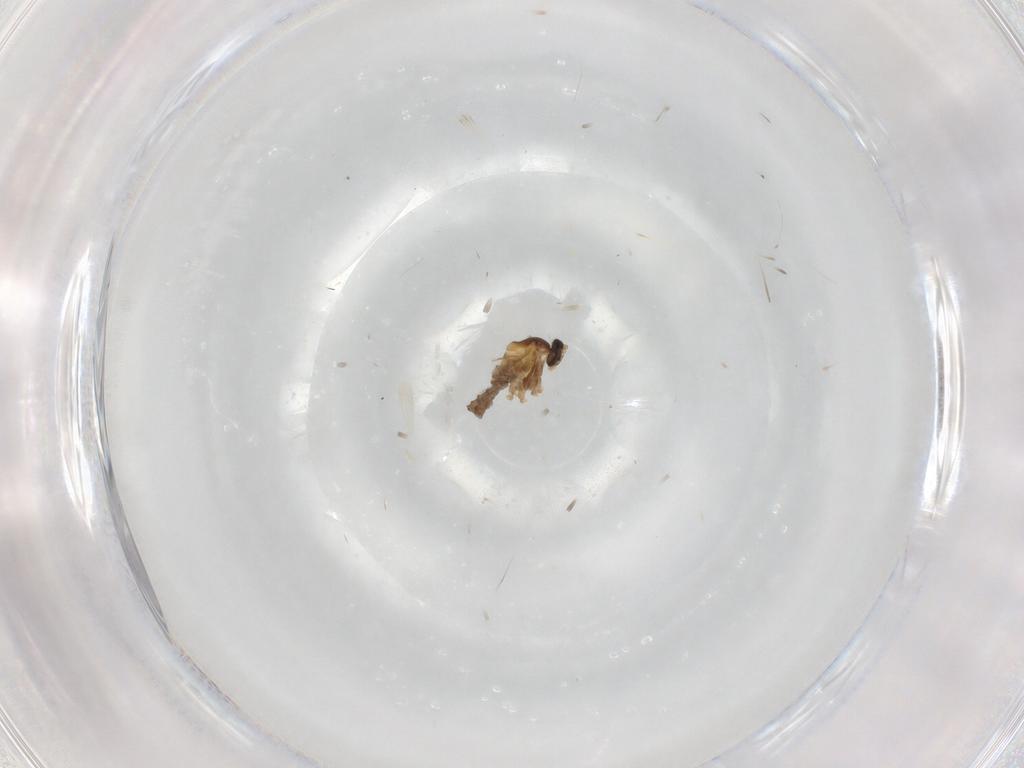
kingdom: Animalia
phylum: Arthropoda
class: Insecta
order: Diptera
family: Cecidomyiidae
